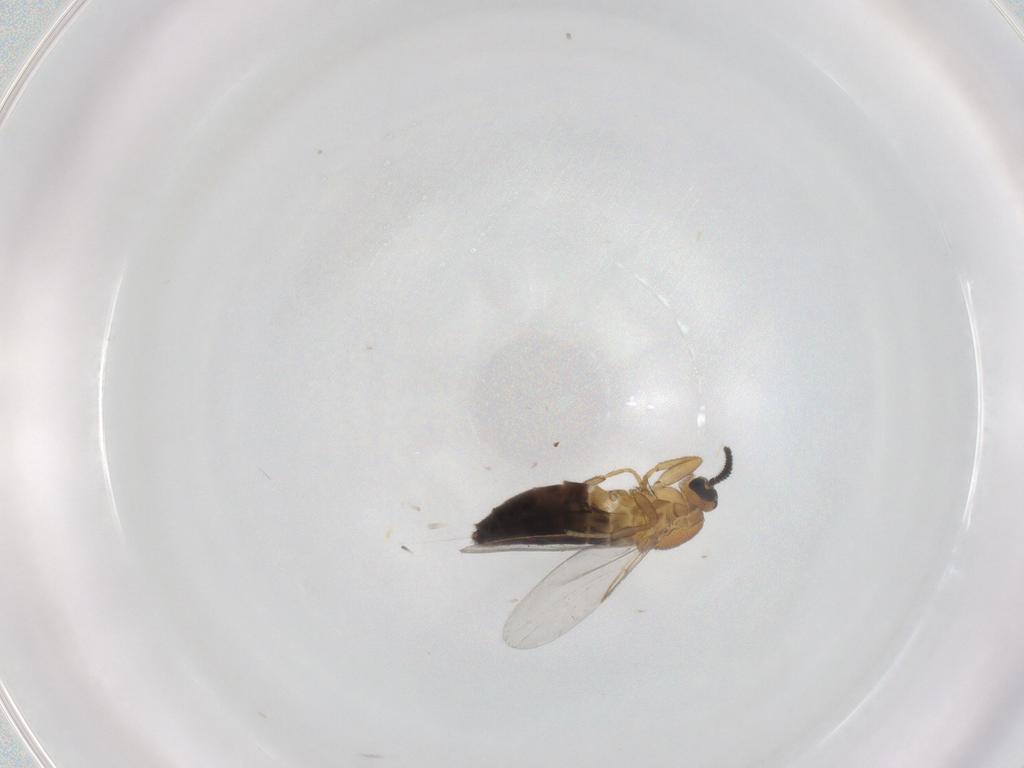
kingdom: Animalia
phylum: Arthropoda
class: Insecta
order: Diptera
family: Scatopsidae
